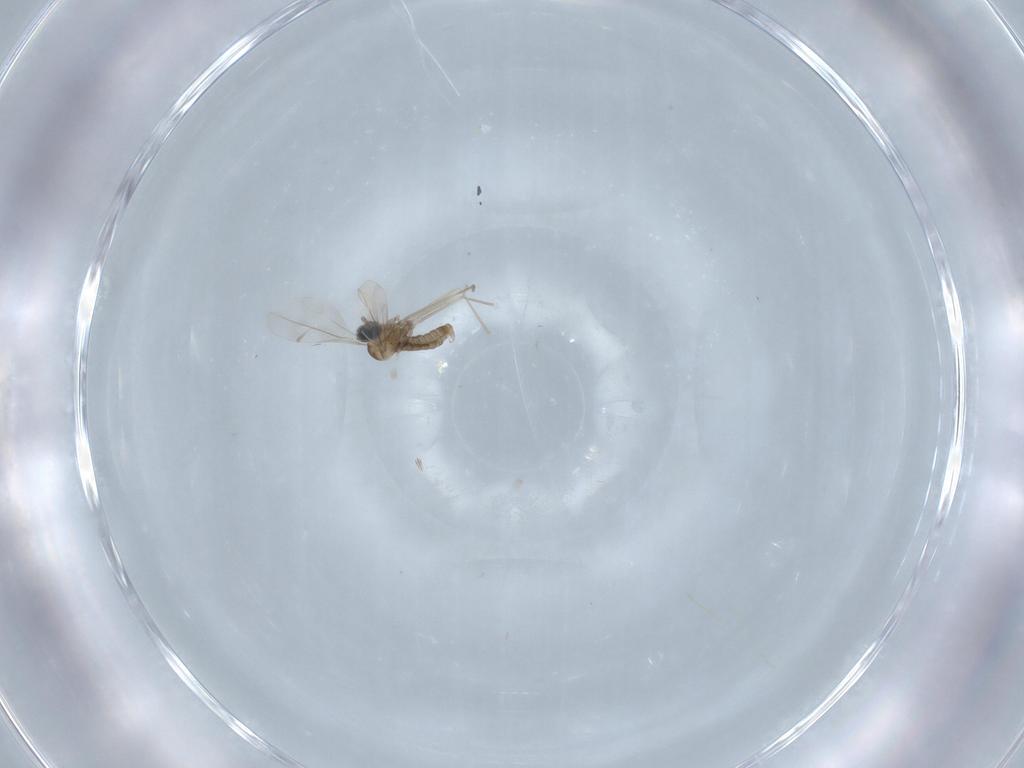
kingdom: Animalia
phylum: Arthropoda
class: Insecta
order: Diptera
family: Cecidomyiidae
